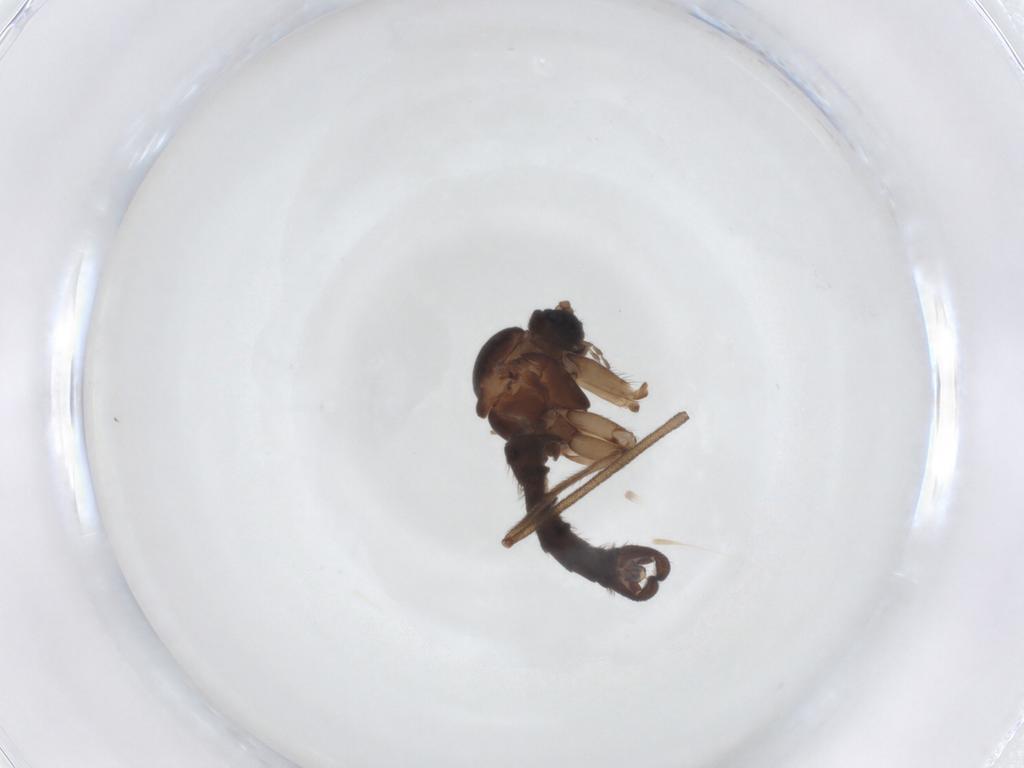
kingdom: Animalia
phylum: Arthropoda
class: Insecta
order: Diptera
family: Sciaridae
